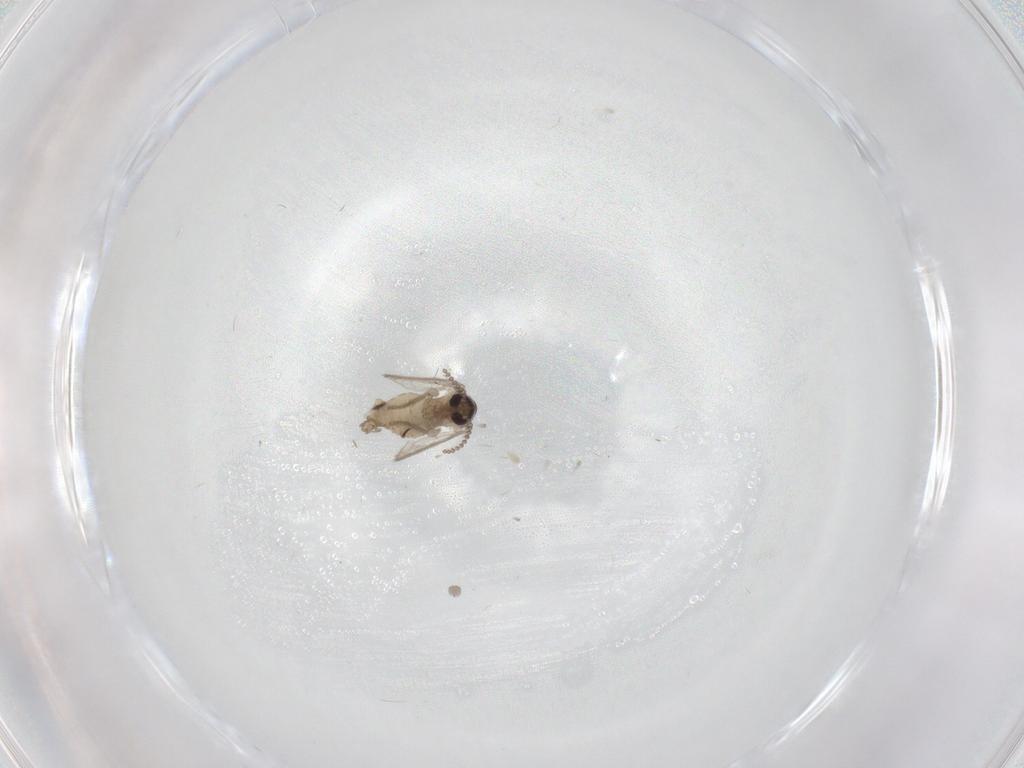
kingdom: Animalia
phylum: Arthropoda
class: Insecta
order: Diptera
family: Psychodidae
